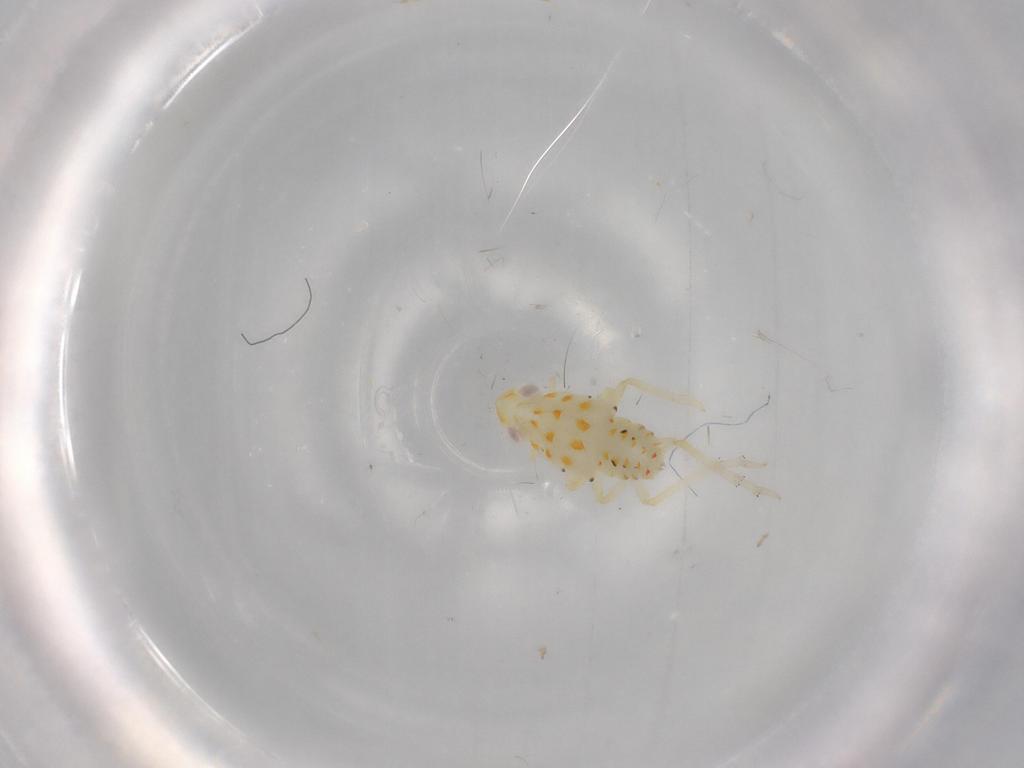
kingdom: Animalia
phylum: Arthropoda
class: Insecta
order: Hemiptera
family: Tropiduchidae
